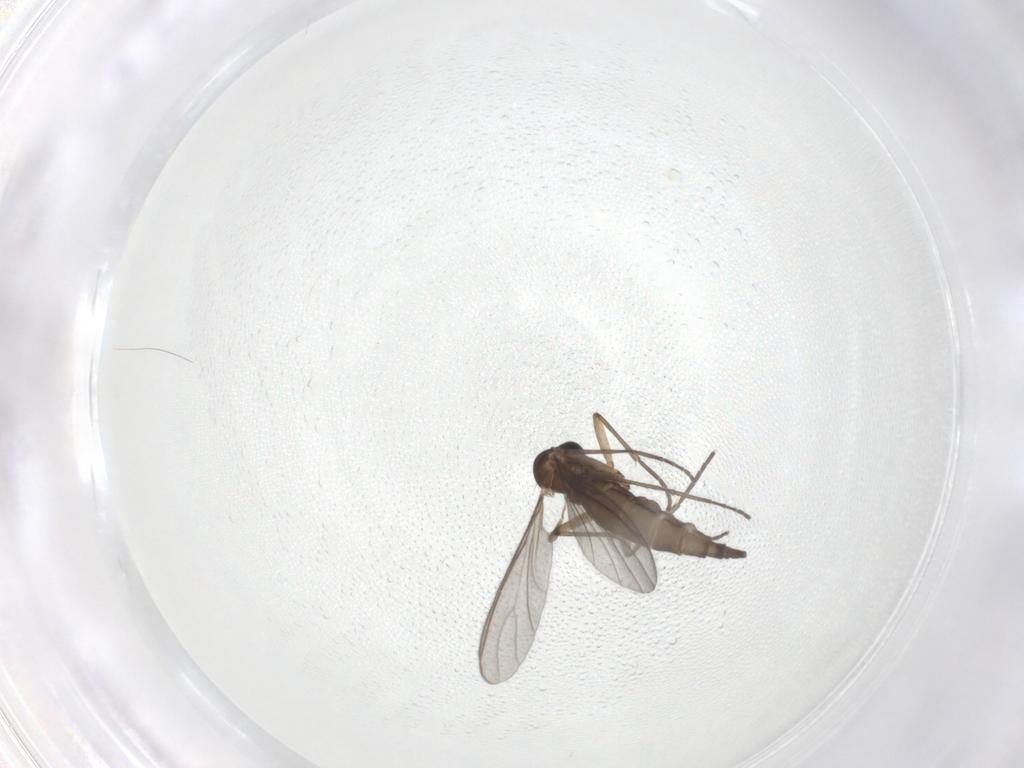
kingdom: Animalia
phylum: Arthropoda
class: Insecta
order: Diptera
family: Sciaridae
